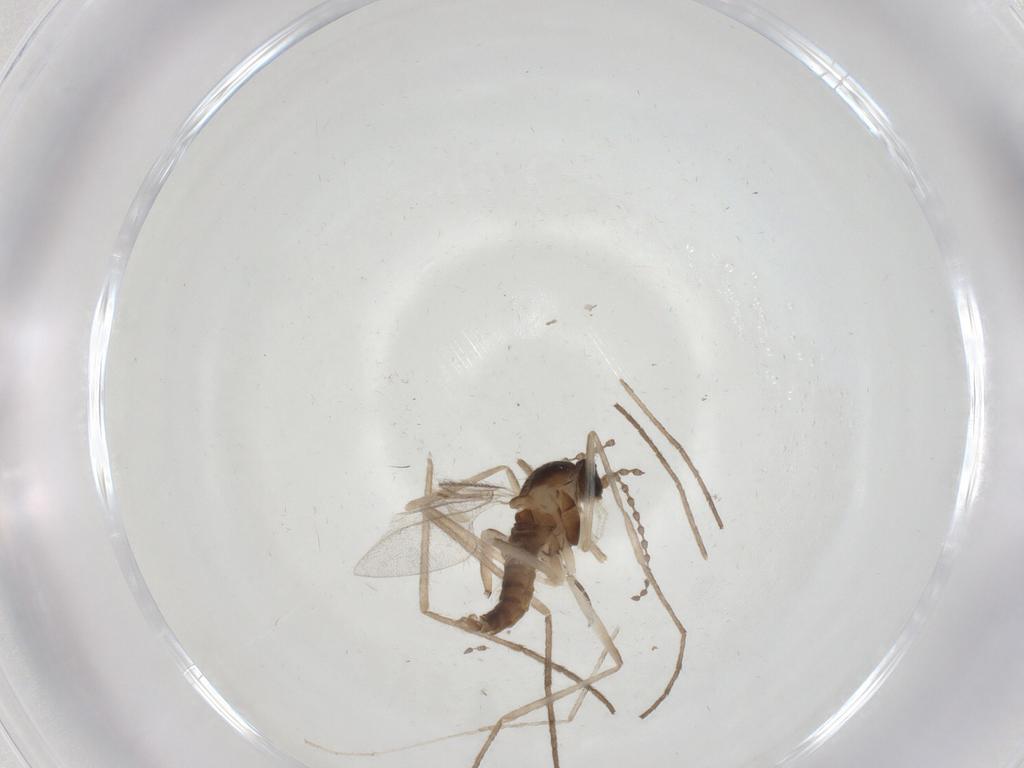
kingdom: Animalia
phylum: Arthropoda
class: Insecta
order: Diptera
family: Cecidomyiidae
